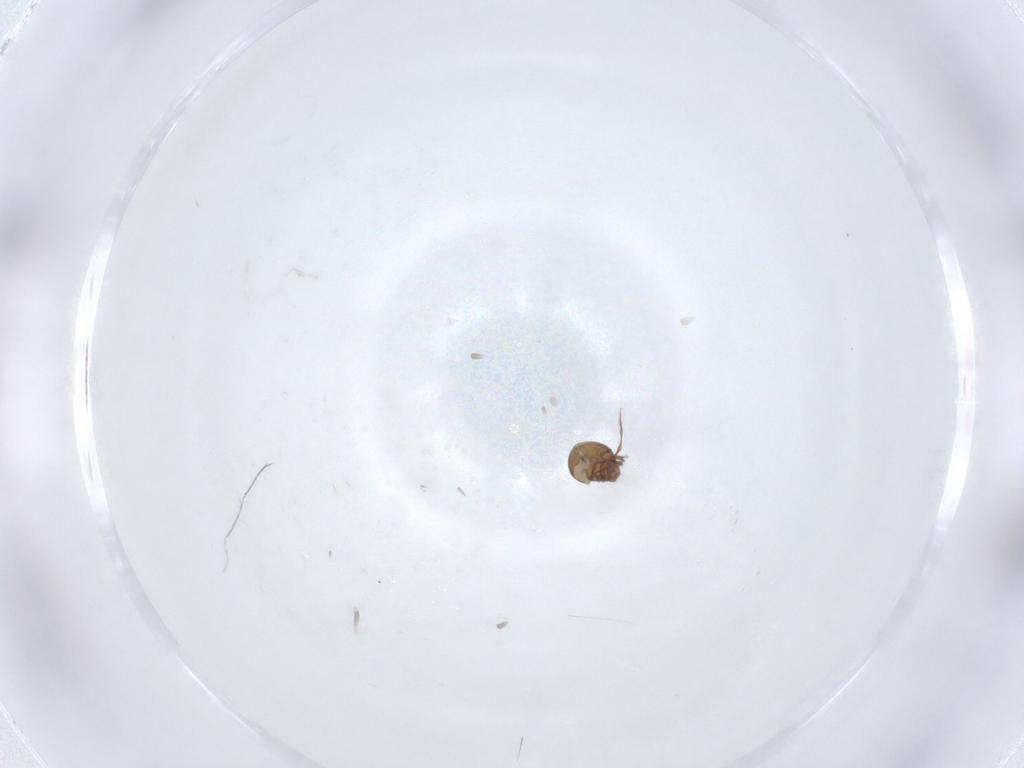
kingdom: Animalia
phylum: Arthropoda
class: Arachnida
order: Sarcoptiformes
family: Oppiidae
